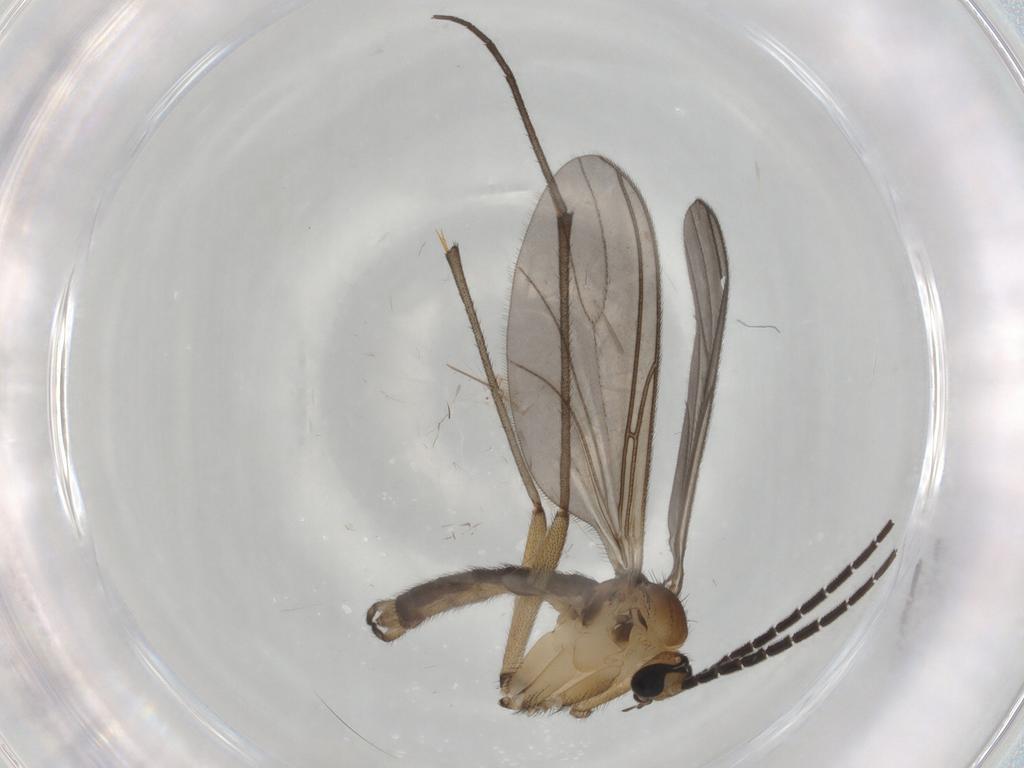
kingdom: Animalia
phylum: Arthropoda
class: Insecta
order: Diptera
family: Sciaridae
